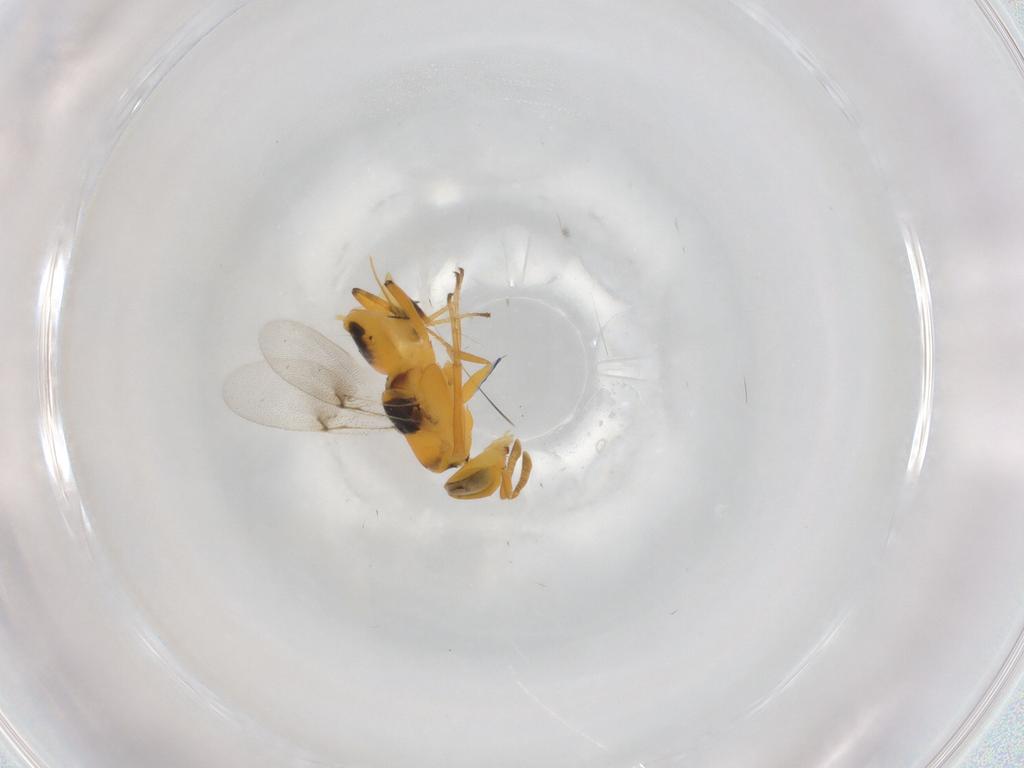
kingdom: Animalia
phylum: Arthropoda
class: Insecta
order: Hymenoptera
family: Encyrtidae
